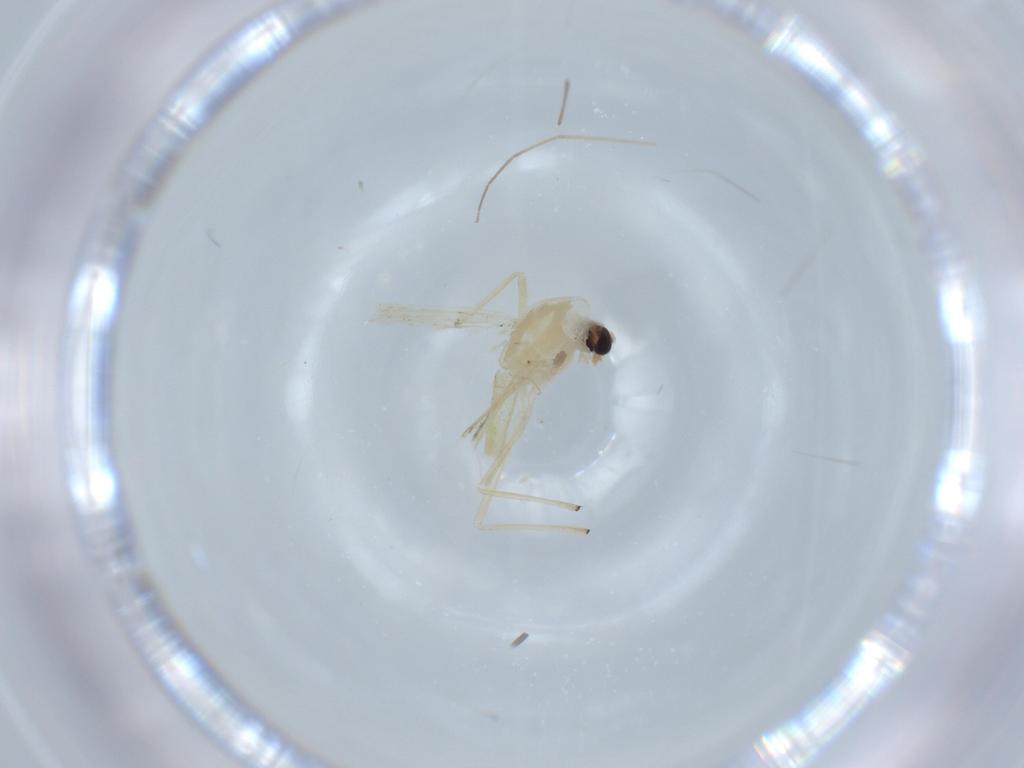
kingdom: Animalia
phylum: Arthropoda
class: Insecta
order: Diptera
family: Chironomidae
